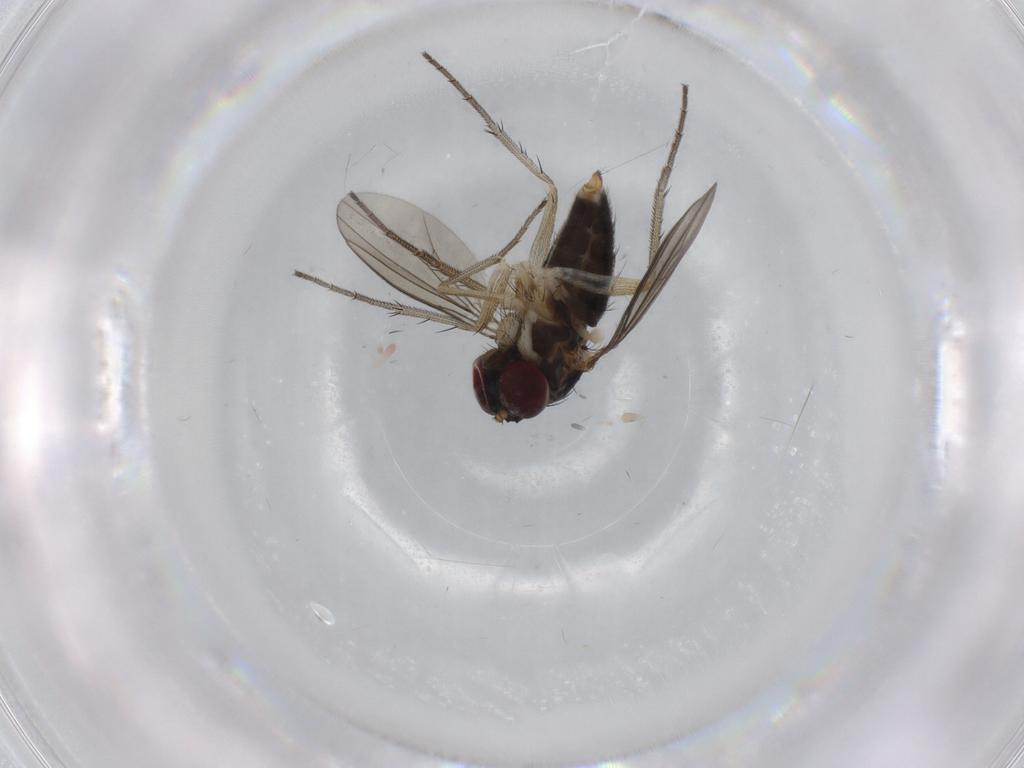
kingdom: Animalia
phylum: Arthropoda
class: Insecta
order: Diptera
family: Dolichopodidae
